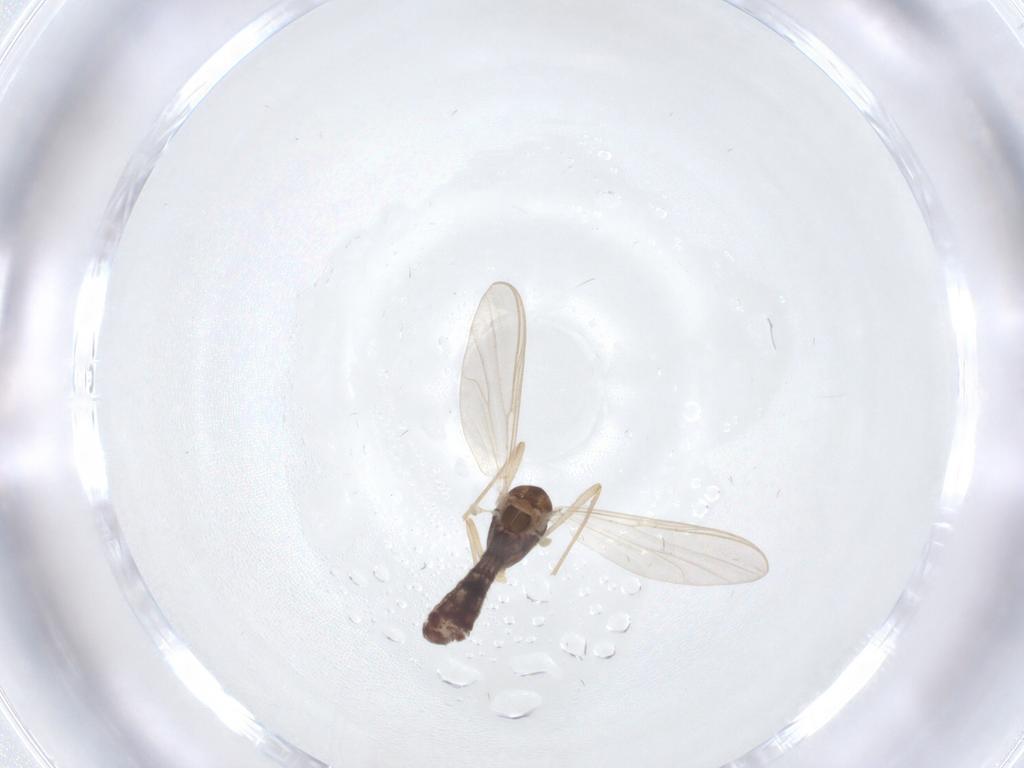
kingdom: Animalia
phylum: Arthropoda
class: Insecta
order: Diptera
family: Chironomidae
